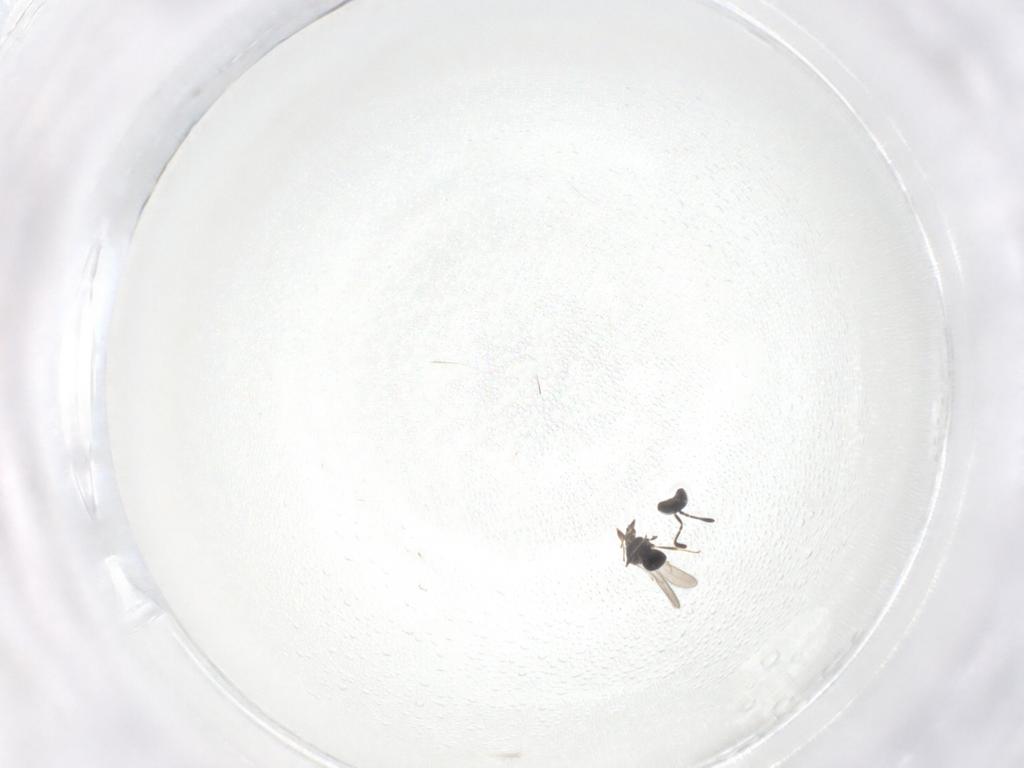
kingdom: Animalia
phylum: Arthropoda
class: Insecta
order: Hymenoptera
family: Scelionidae
